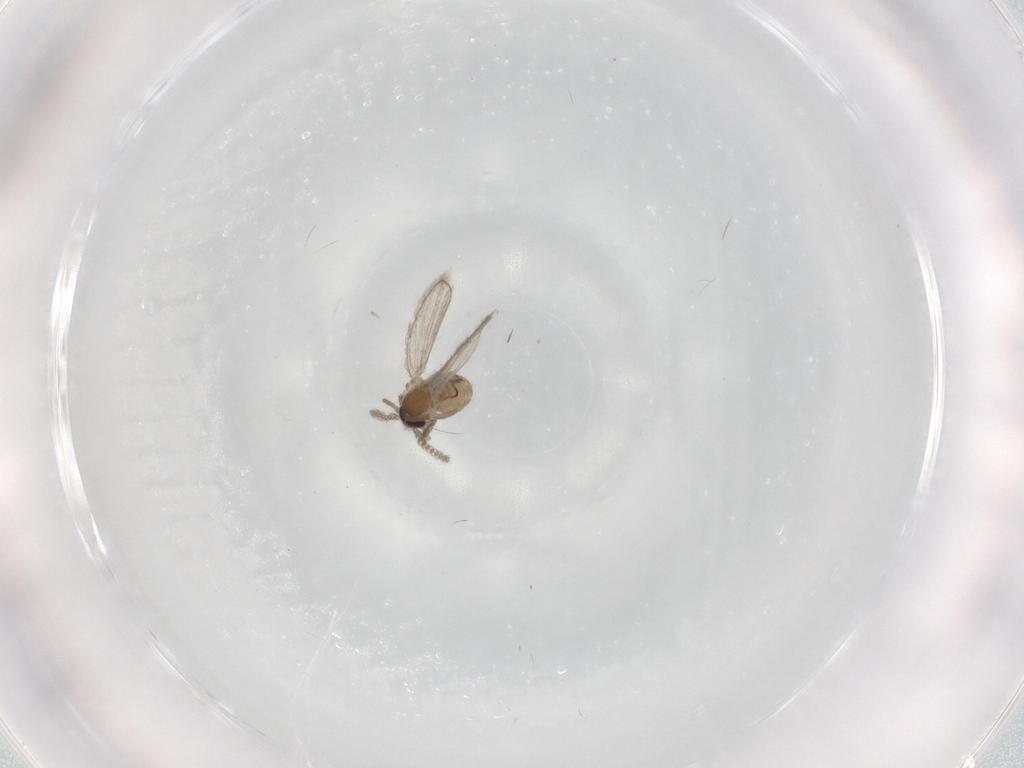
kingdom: Animalia
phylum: Arthropoda
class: Insecta
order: Diptera
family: Psychodidae
